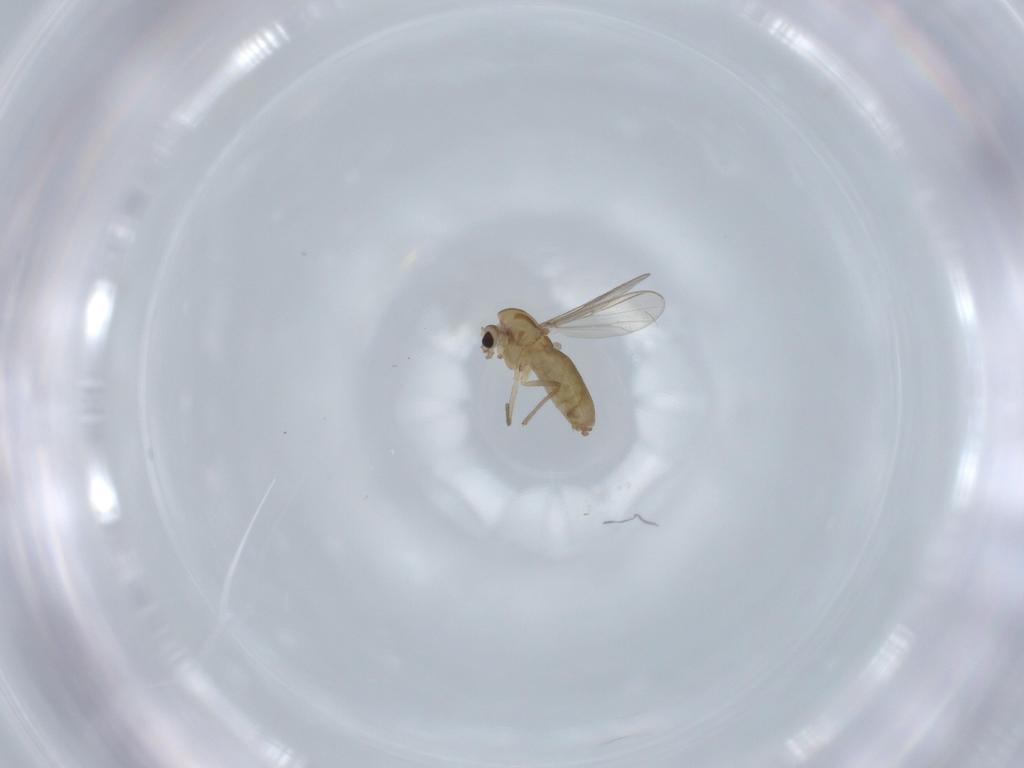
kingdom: Animalia
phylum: Arthropoda
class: Insecta
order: Diptera
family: Chironomidae
